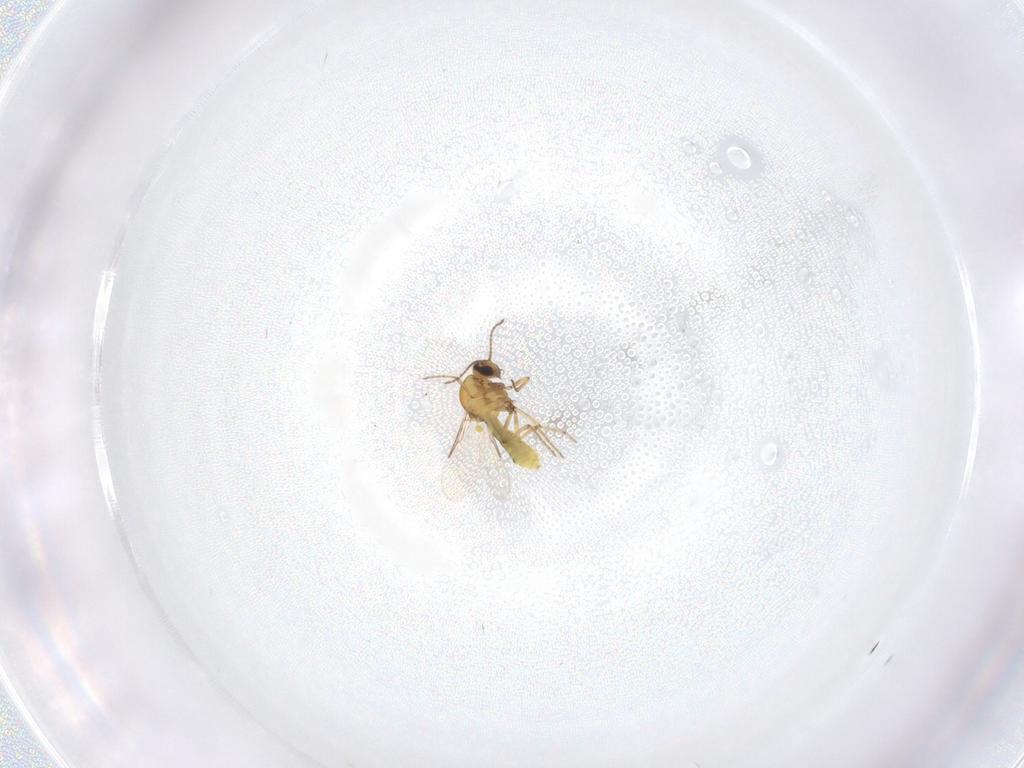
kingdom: Animalia
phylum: Arthropoda
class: Insecta
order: Diptera
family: Ceratopogonidae
